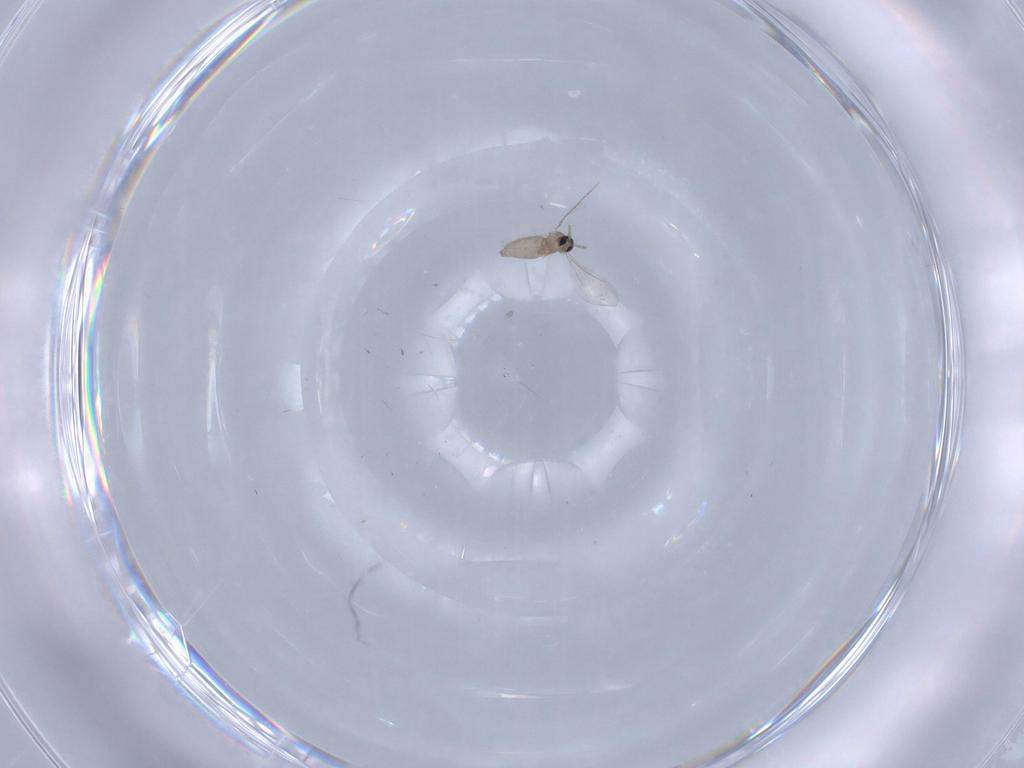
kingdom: Animalia
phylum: Arthropoda
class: Insecta
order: Diptera
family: Cecidomyiidae
